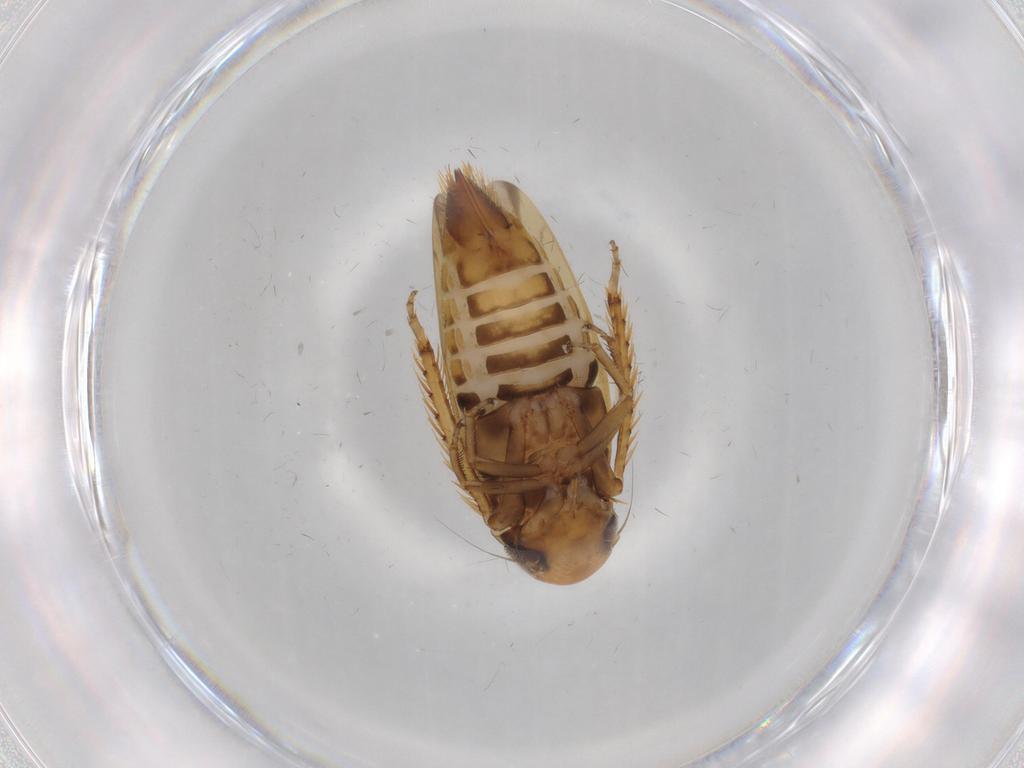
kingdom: Animalia
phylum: Arthropoda
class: Insecta
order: Hemiptera
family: Cicadellidae
